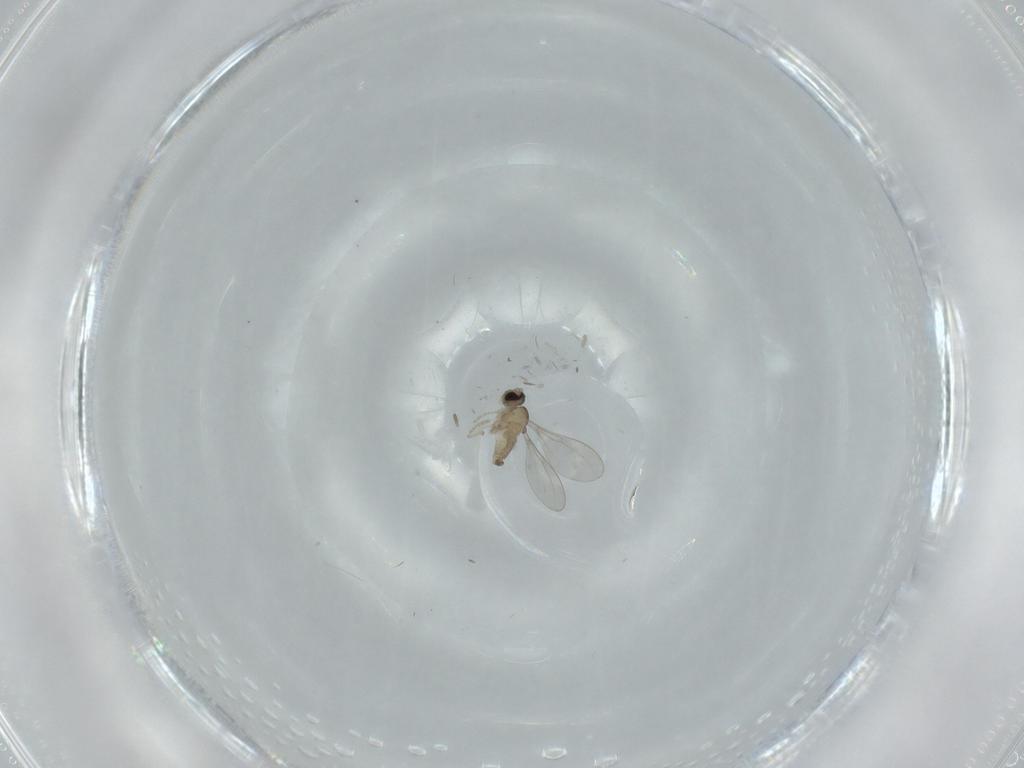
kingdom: Animalia
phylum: Arthropoda
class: Insecta
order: Diptera
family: Cecidomyiidae
